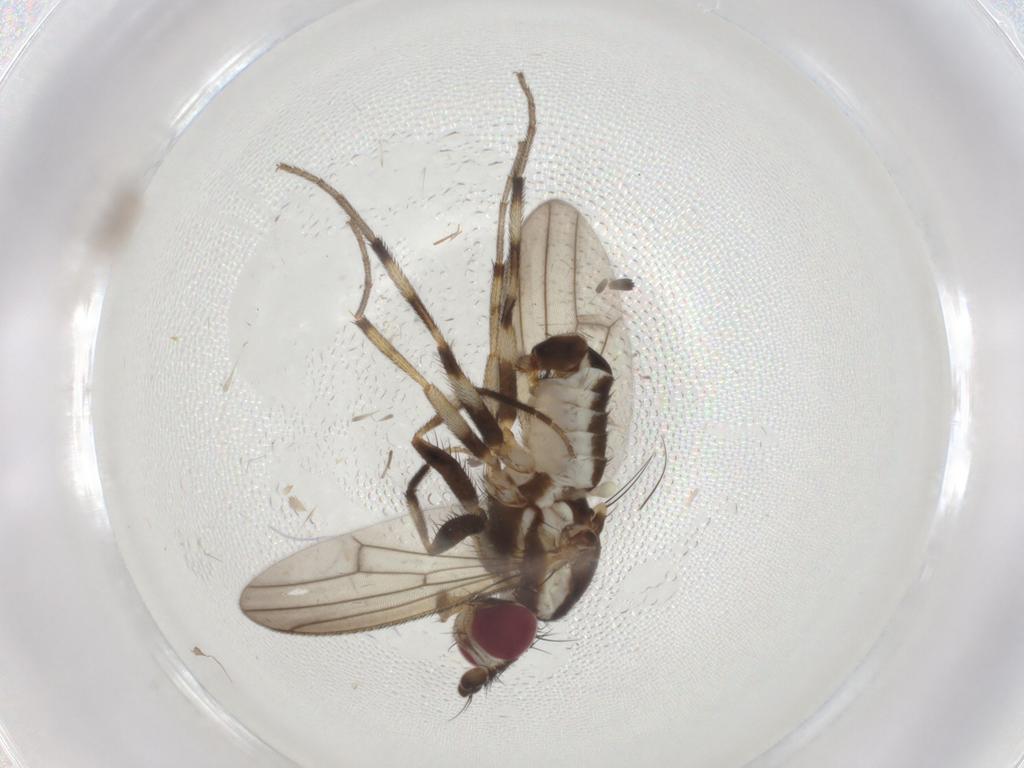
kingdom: Animalia
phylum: Arthropoda
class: Insecta
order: Diptera
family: Pseudopomyzidae
